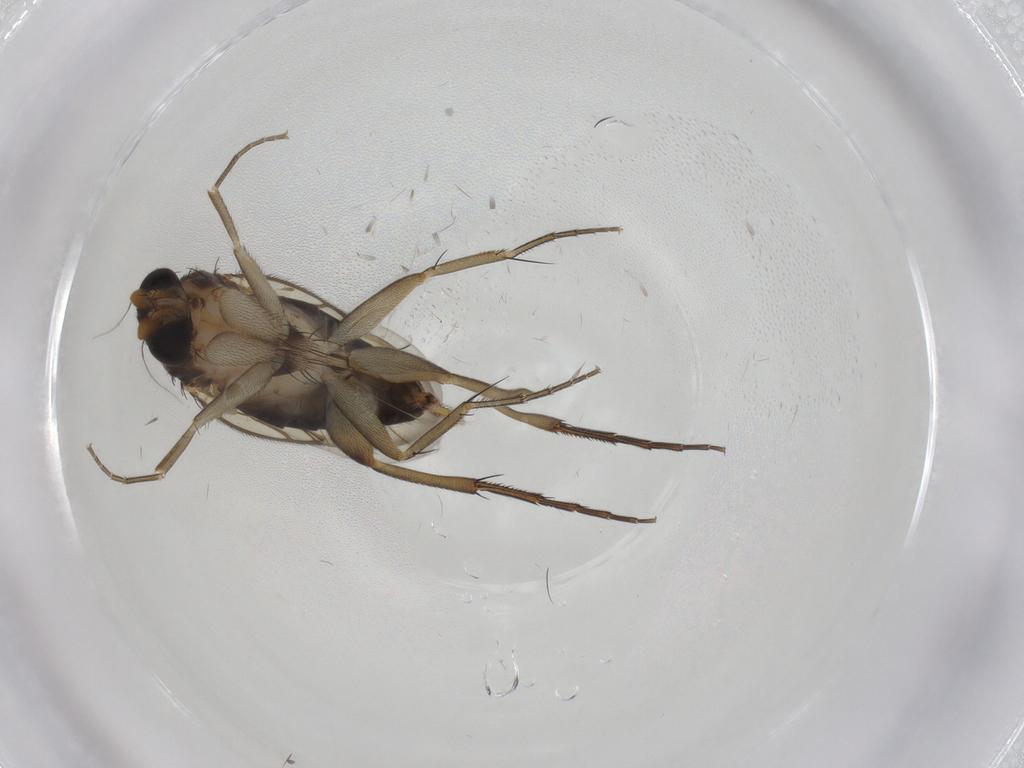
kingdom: Animalia
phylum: Arthropoda
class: Insecta
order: Diptera
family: Phoridae
